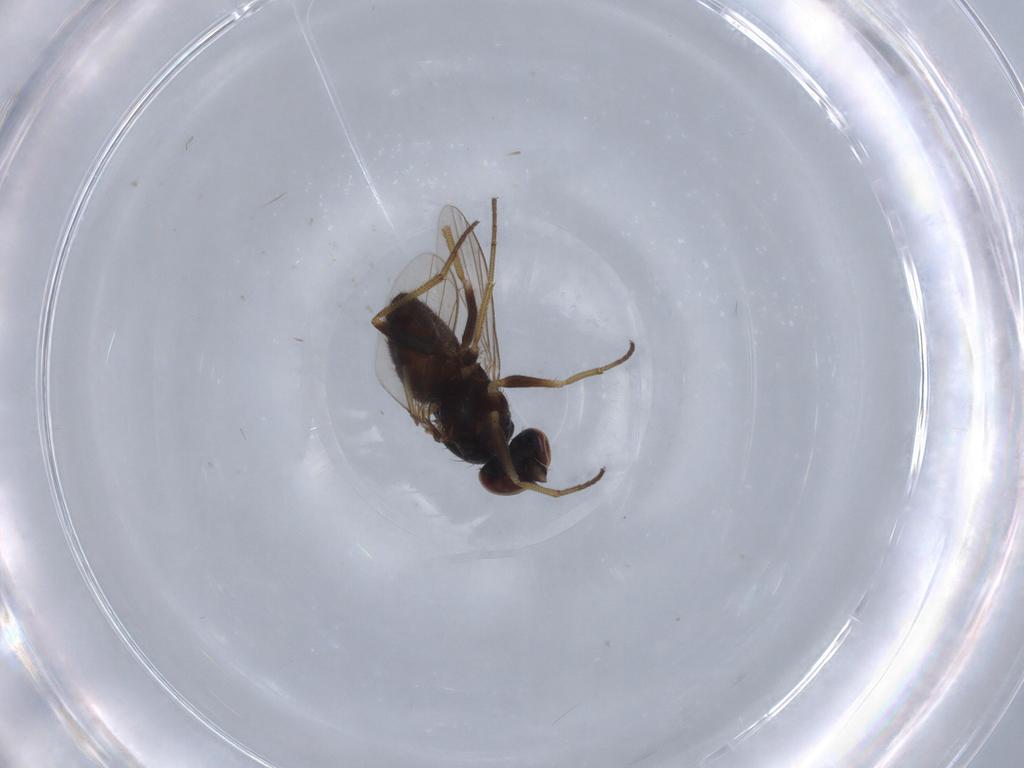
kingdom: Animalia
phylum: Arthropoda
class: Insecta
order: Diptera
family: Dolichopodidae
